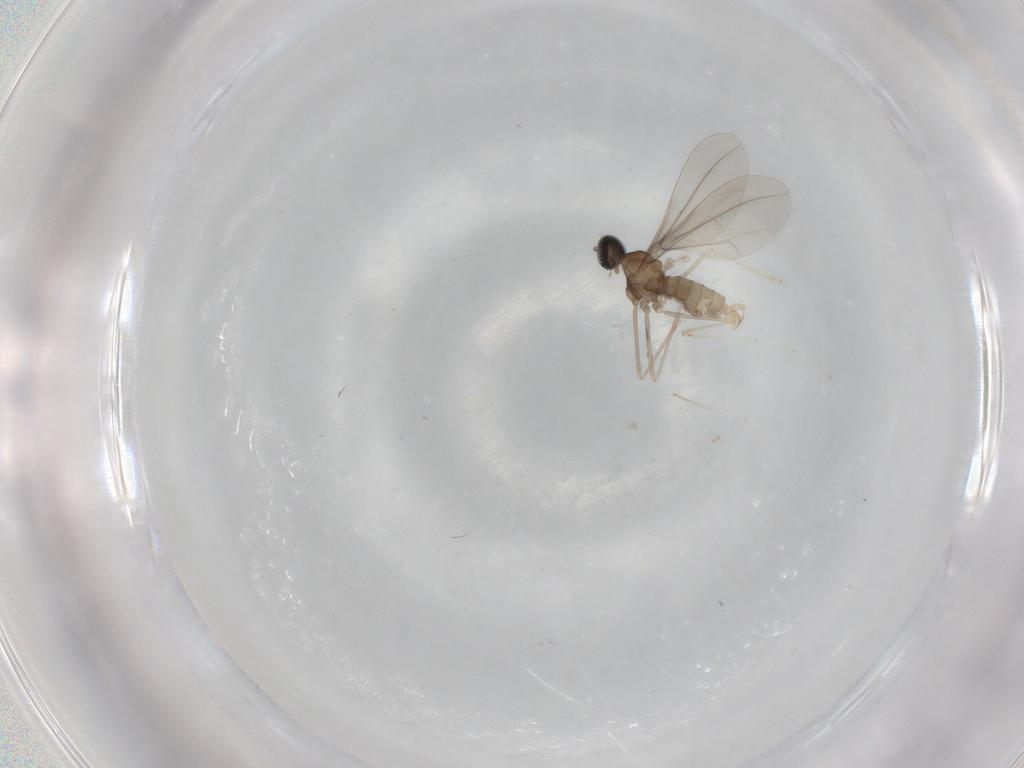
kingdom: Animalia
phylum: Arthropoda
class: Insecta
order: Diptera
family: Cecidomyiidae
